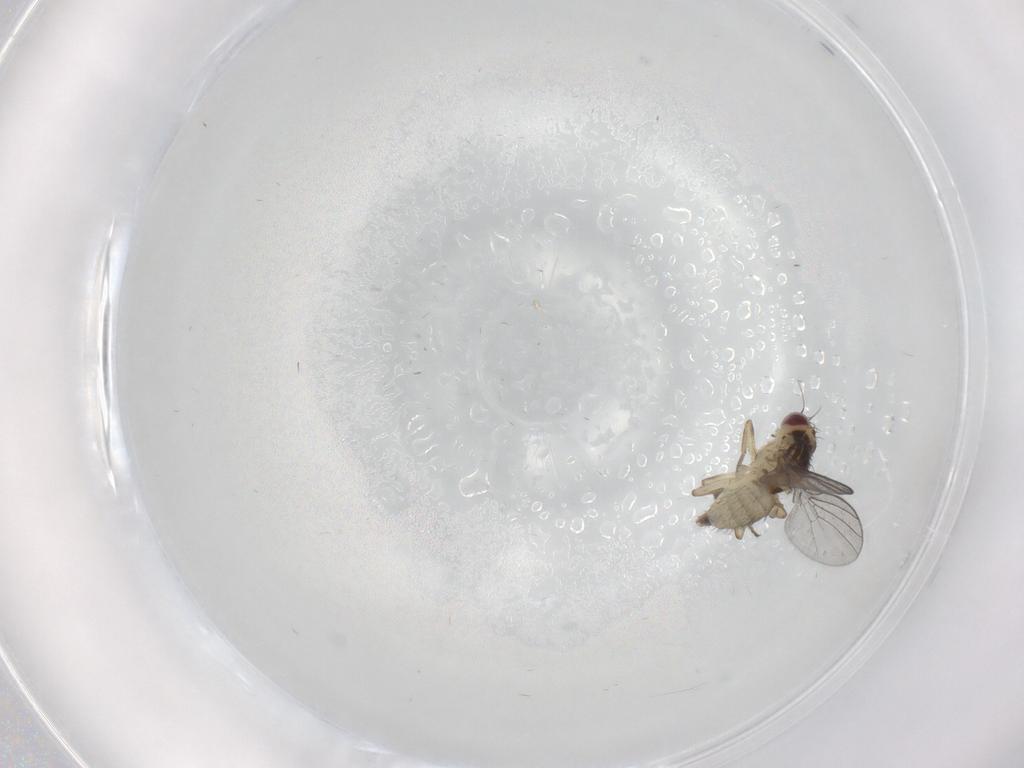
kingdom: Animalia
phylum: Arthropoda
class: Insecta
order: Diptera
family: Agromyzidae
